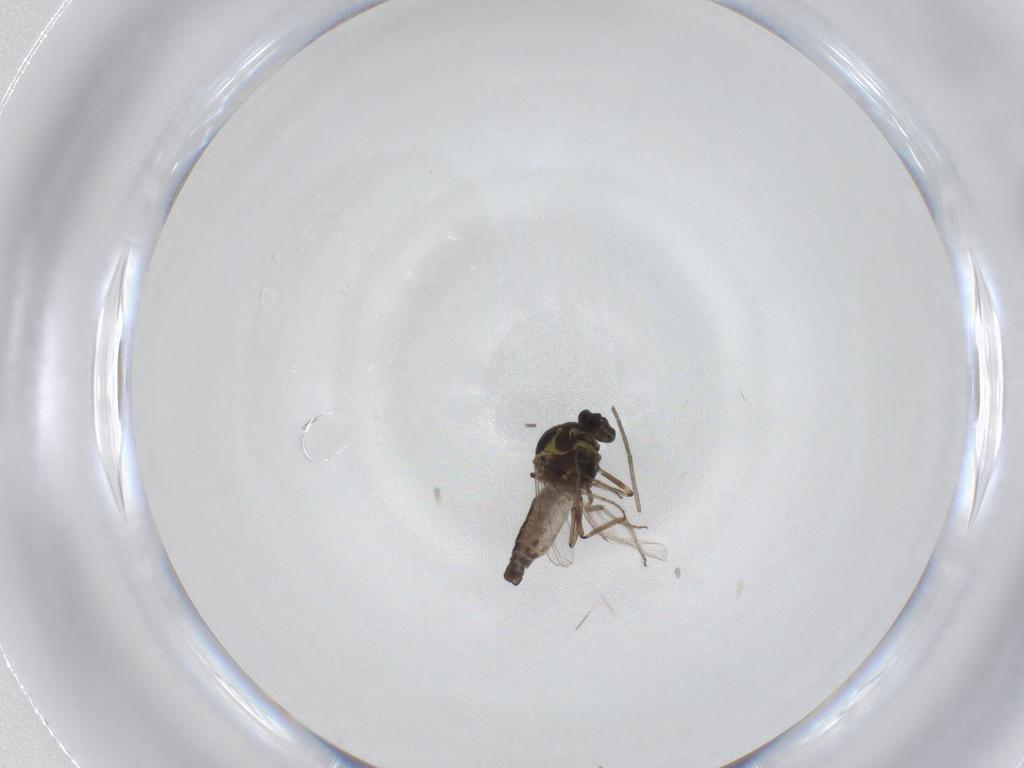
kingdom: Animalia
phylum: Arthropoda
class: Insecta
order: Diptera
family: Ceratopogonidae
